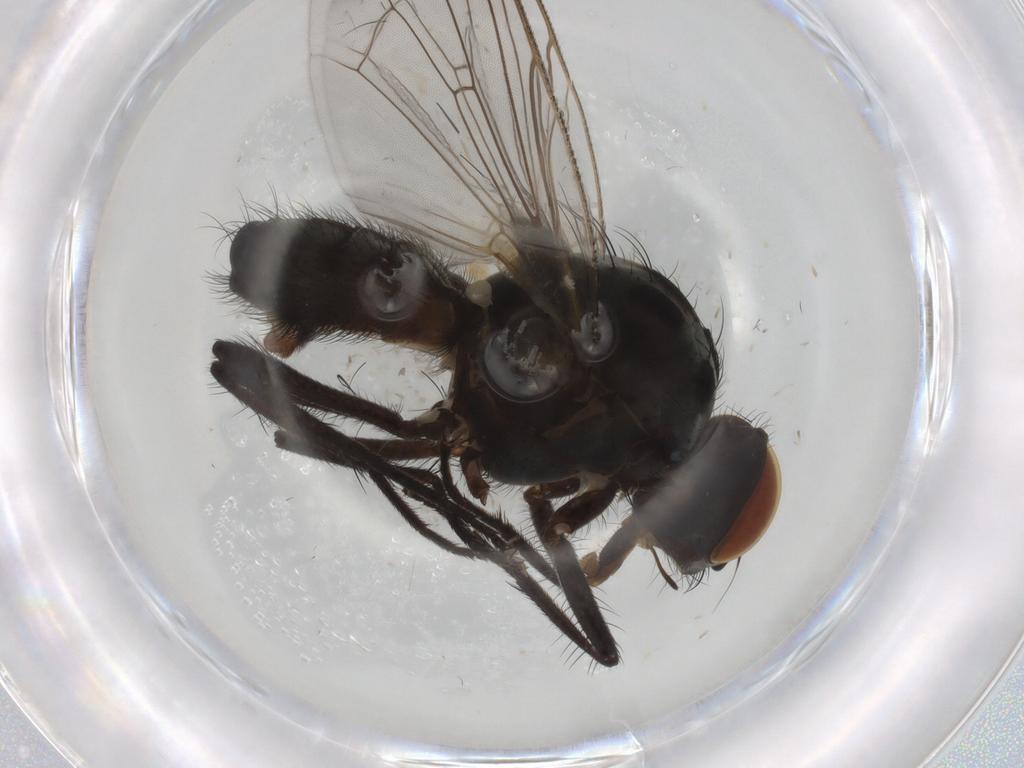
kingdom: Animalia
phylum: Arthropoda
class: Insecta
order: Diptera
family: Anthomyiidae
